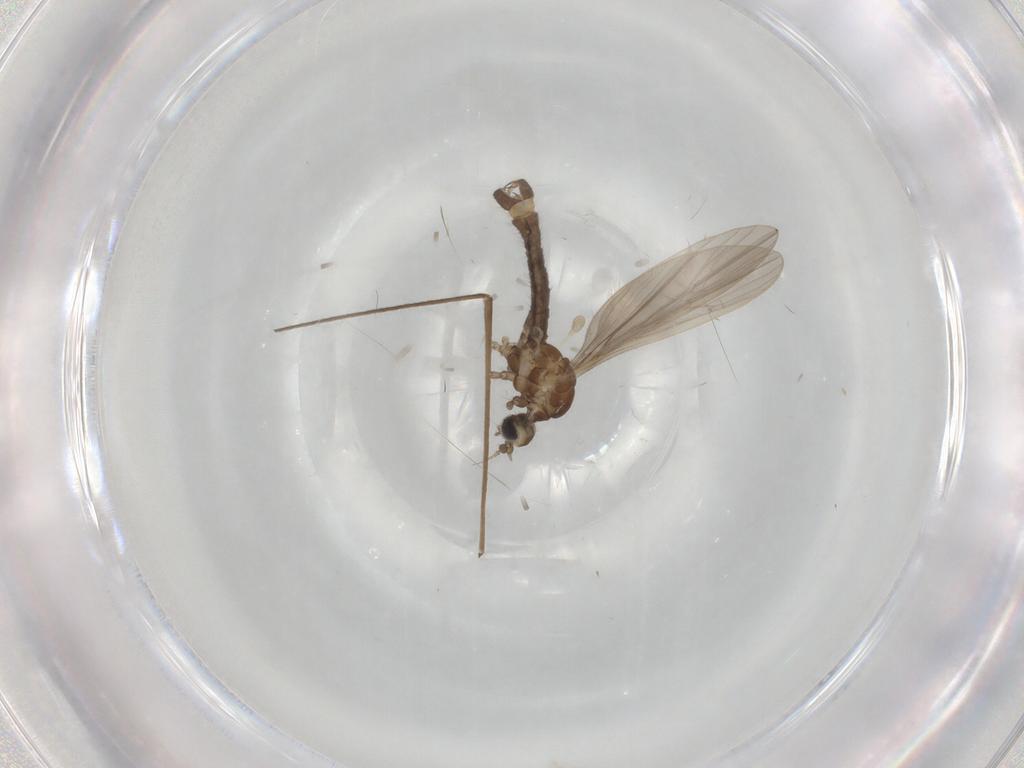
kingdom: Animalia
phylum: Arthropoda
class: Insecta
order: Diptera
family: Limoniidae
